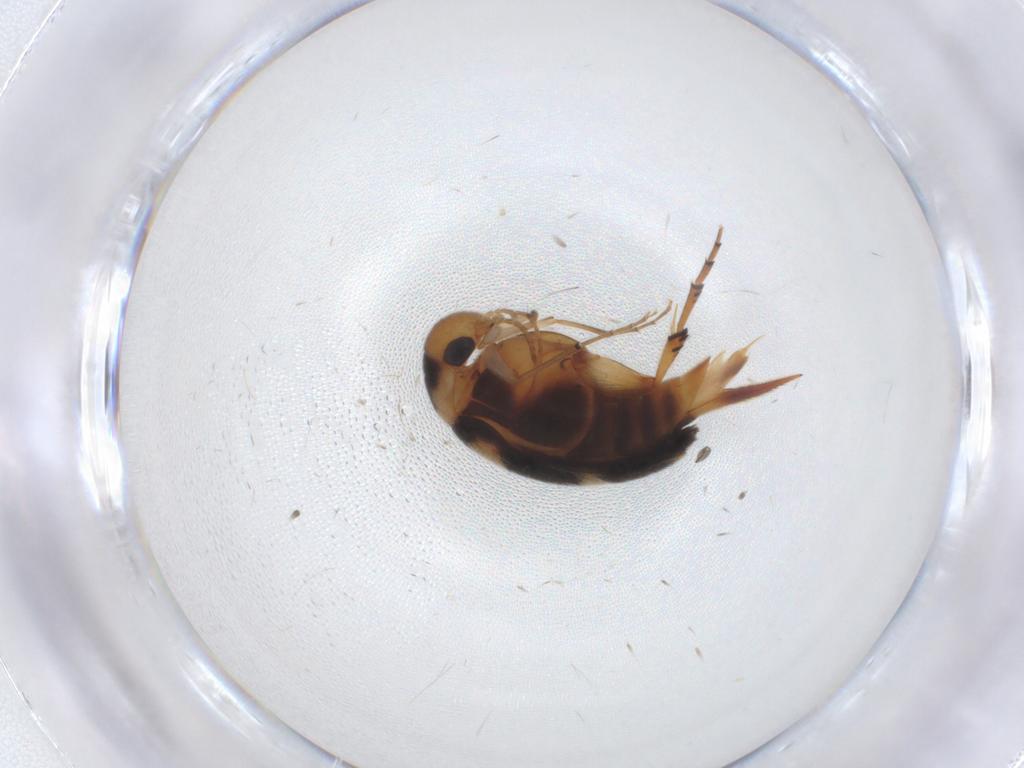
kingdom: Animalia
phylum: Arthropoda
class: Insecta
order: Coleoptera
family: Mordellidae
